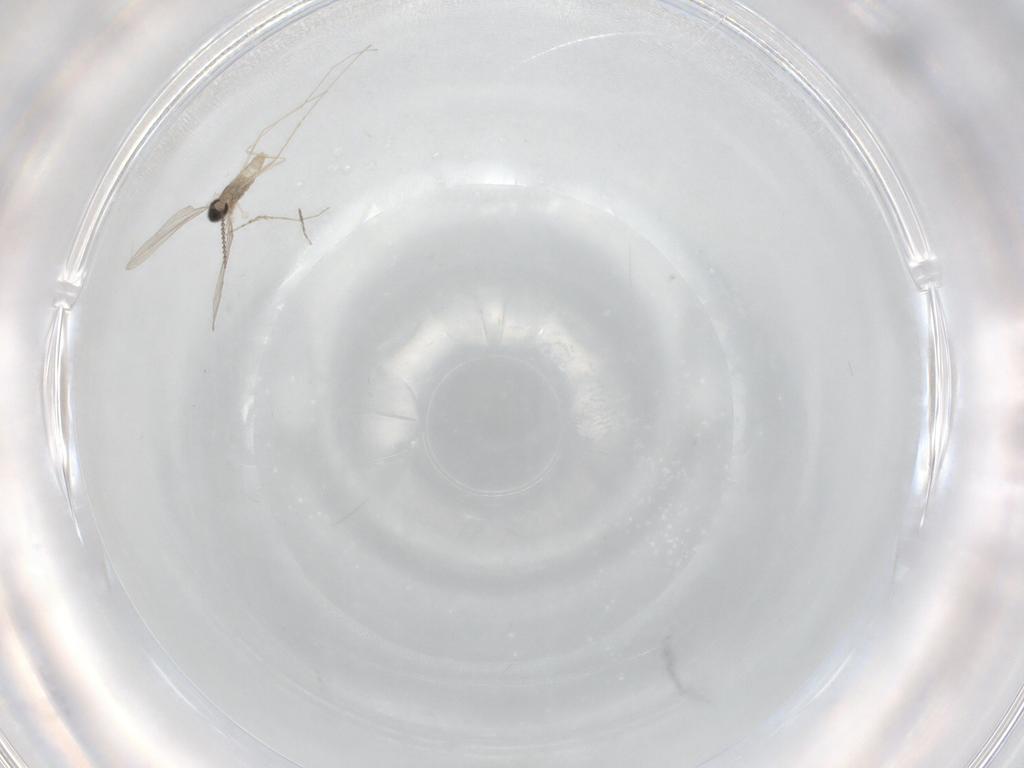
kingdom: Animalia
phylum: Arthropoda
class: Insecta
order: Diptera
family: Cecidomyiidae
